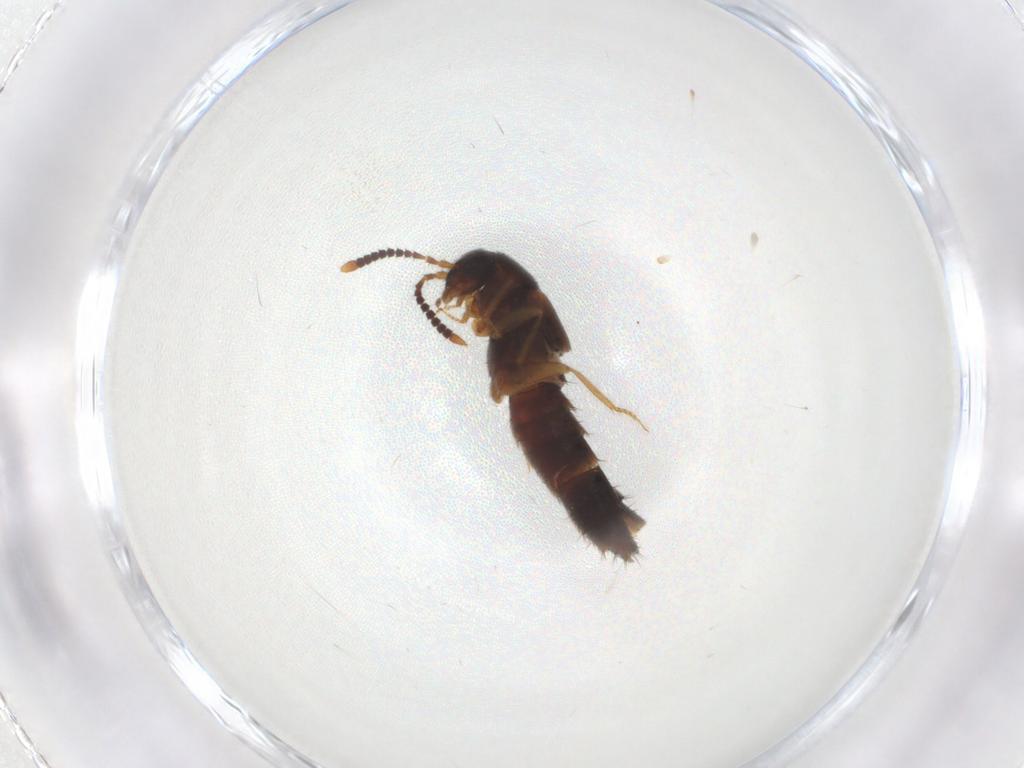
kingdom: Animalia
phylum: Arthropoda
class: Insecta
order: Coleoptera
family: Staphylinidae
